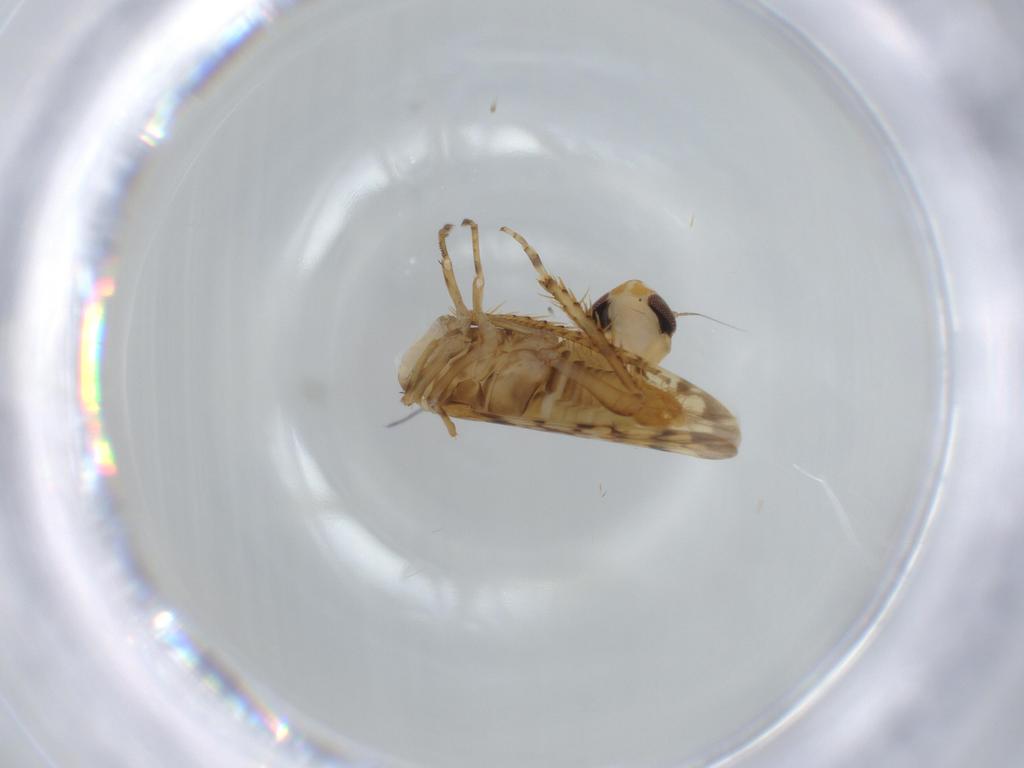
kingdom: Animalia
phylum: Arthropoda
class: Insecta
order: Hemiptera
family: Cicadellidae
